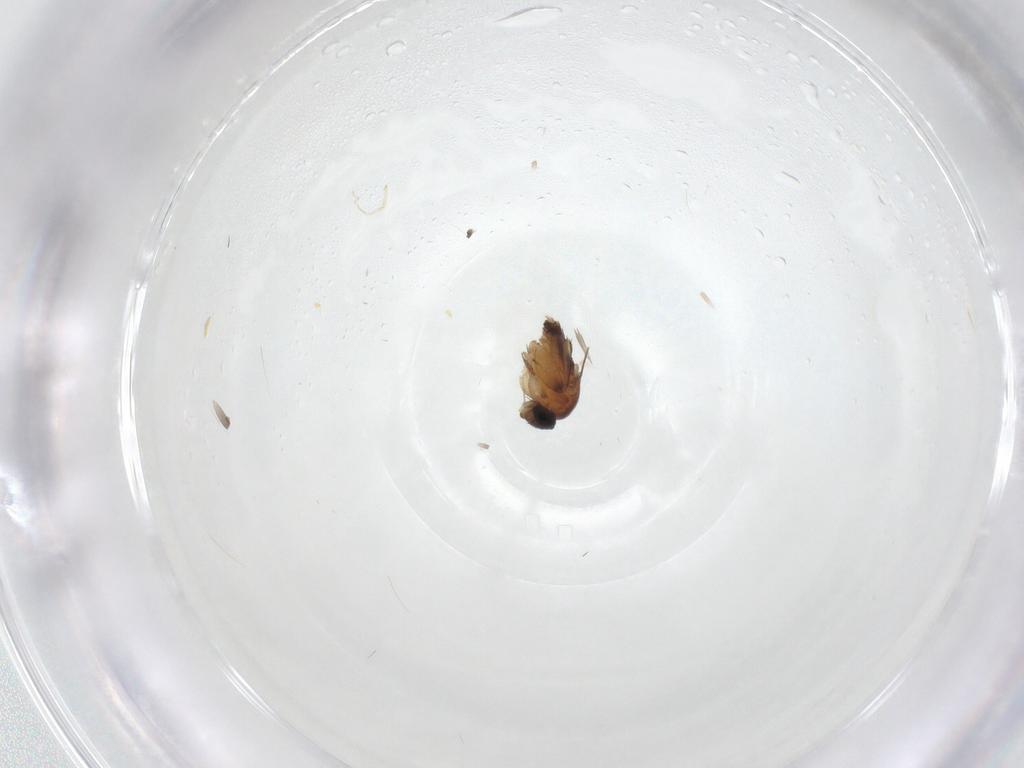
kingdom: Animalia
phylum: Arthropoda
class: Insecta
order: Diptera
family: Phoridae
